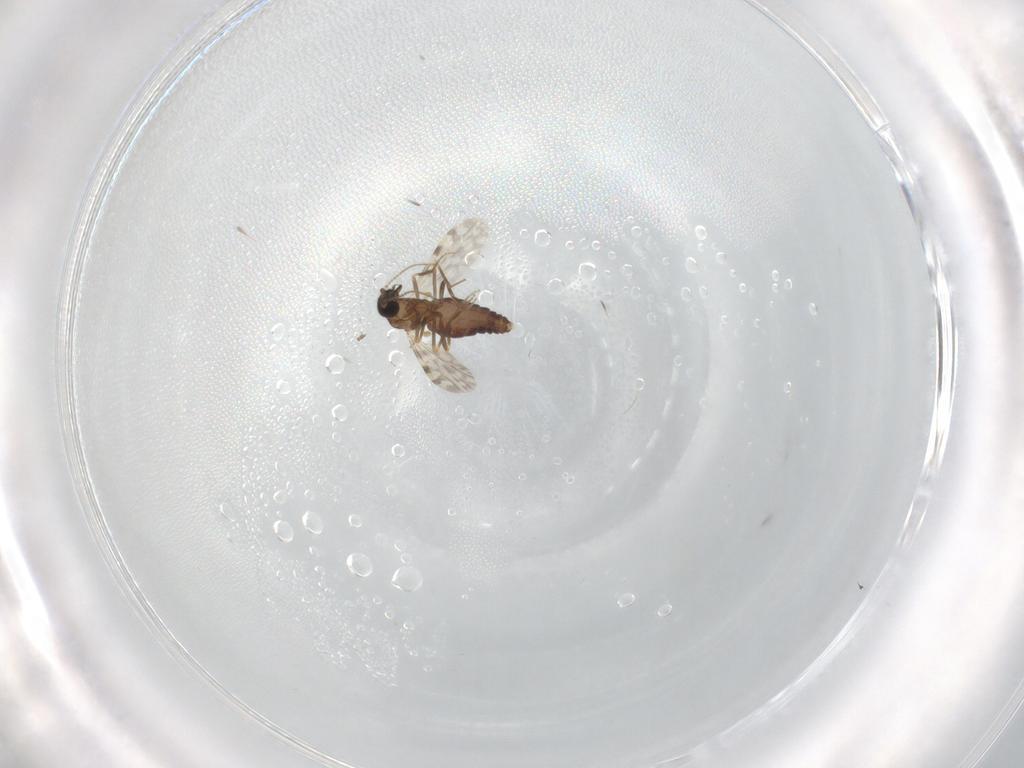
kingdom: Animalia
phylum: Arthropoda
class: Insecta
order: Diptera
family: Ceratopogonidae
